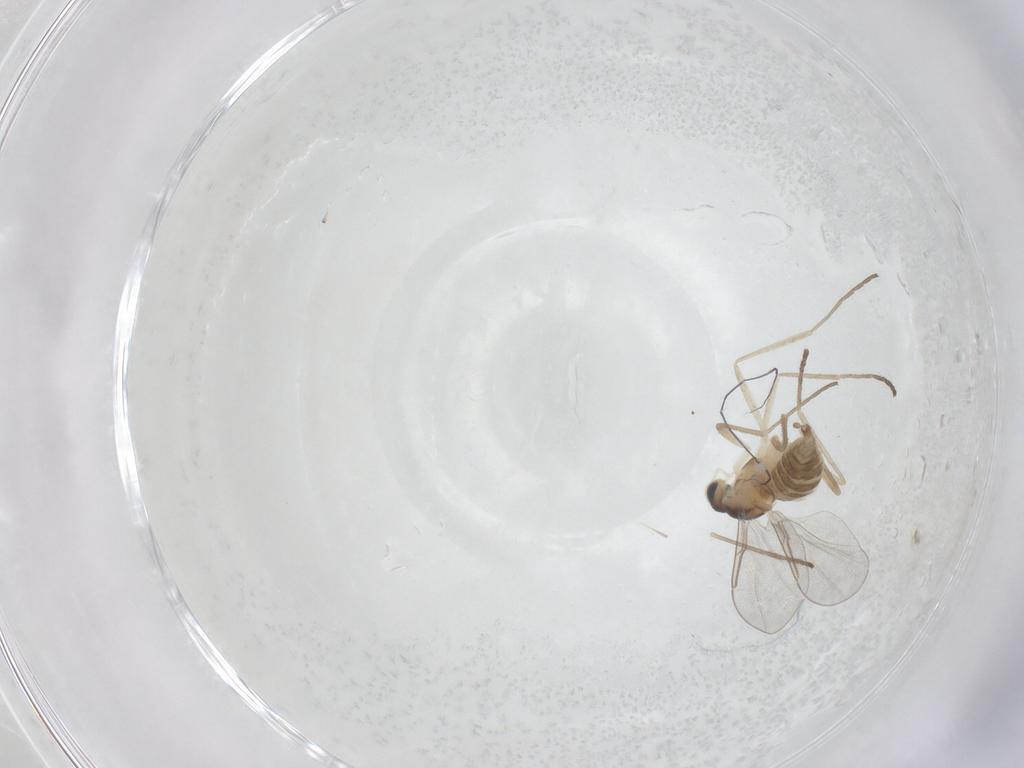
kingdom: Animalia
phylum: Arthropoda
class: Insecta
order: Diptera
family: Cecidomyiidae
